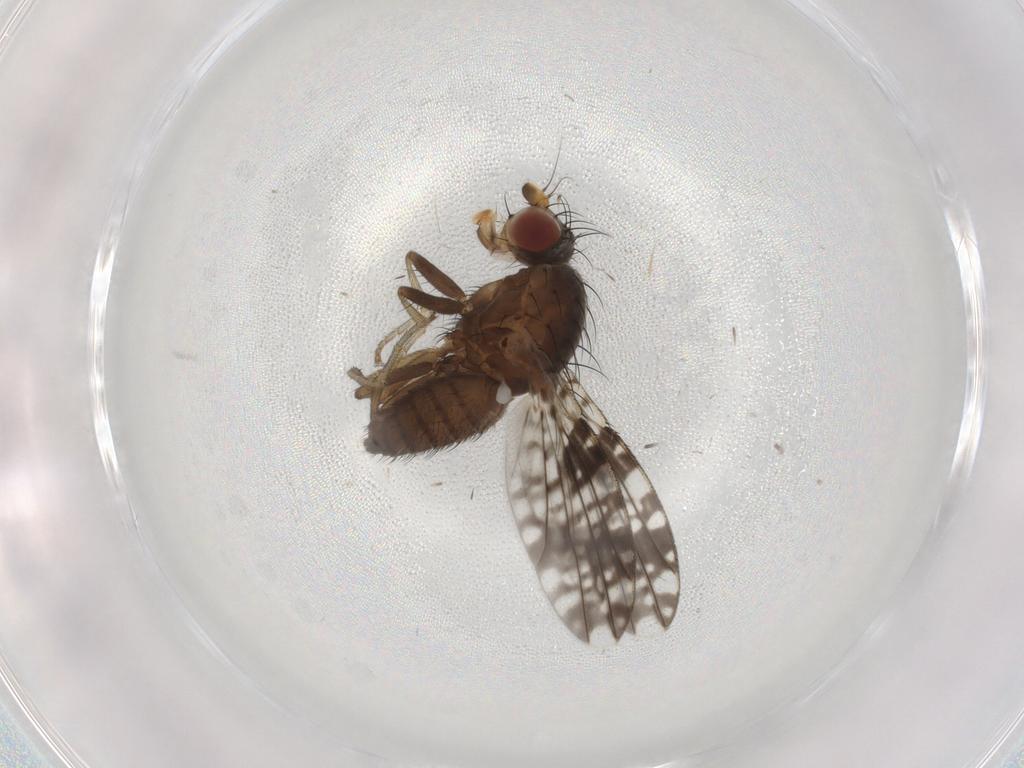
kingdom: Animalia
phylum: Arthropoda
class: Insecta
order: Diptera
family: Tephritidae
